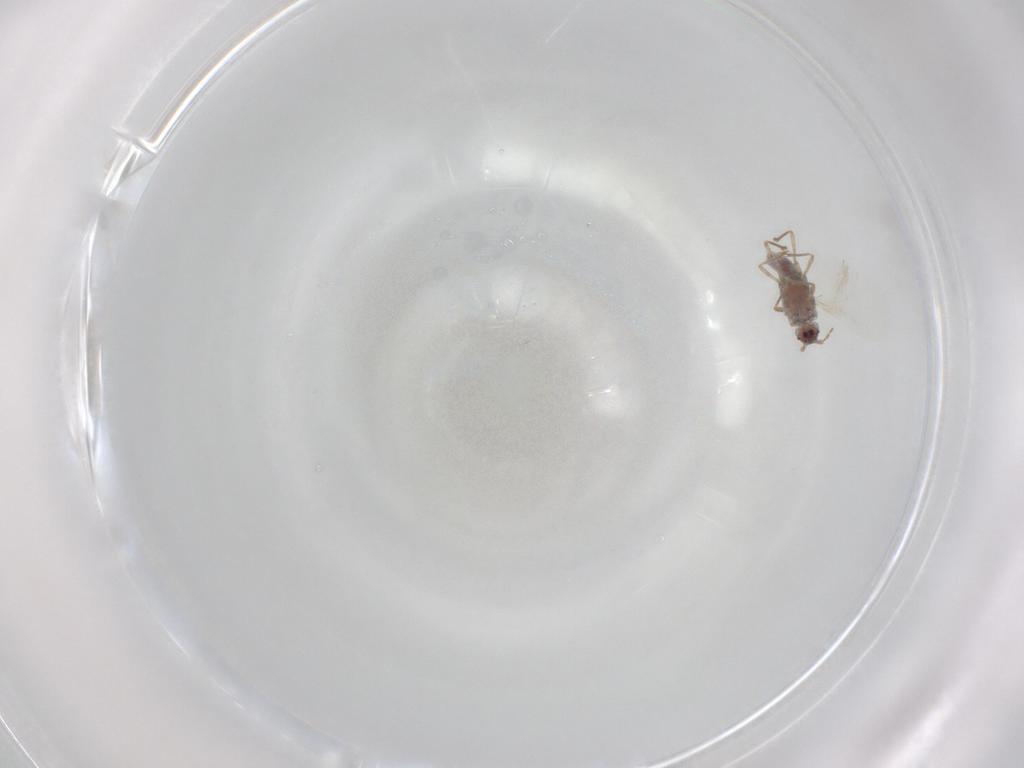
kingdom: Animalia
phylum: Arthropoda
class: Insecta
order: Hemiptera
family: Pseudococcidae
